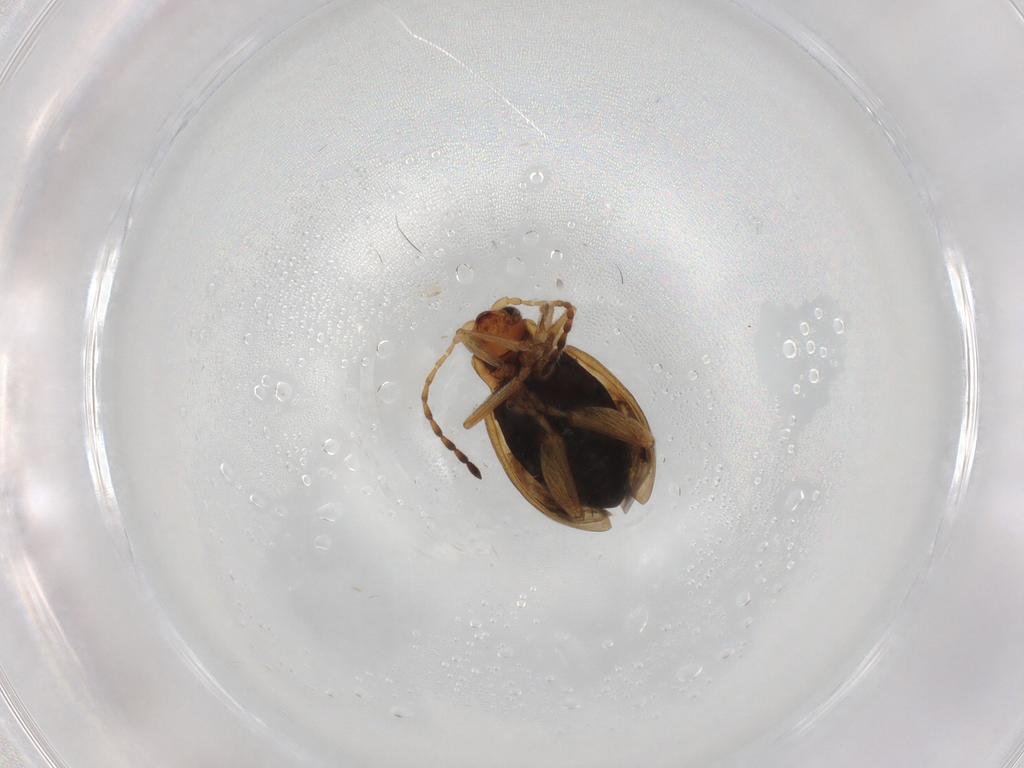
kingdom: Animalia
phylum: Arthropoda
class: Insecta
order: Coleoptera
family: Chrysomelidae
